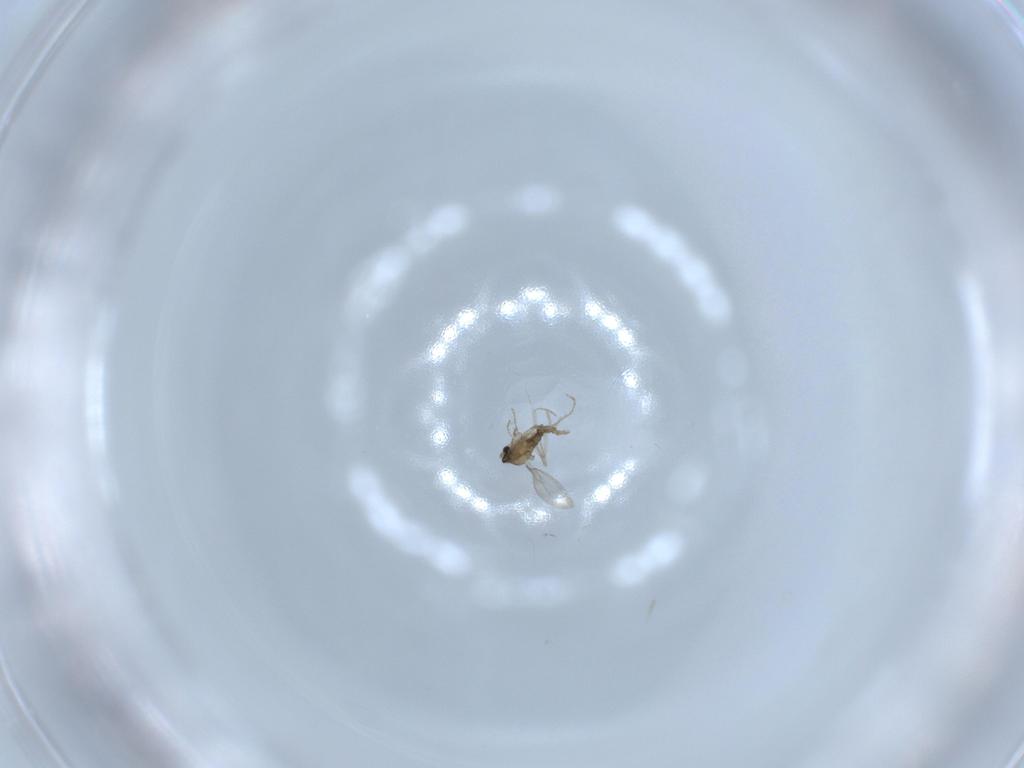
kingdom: Animalia
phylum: Arthropoda
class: Insecta
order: Diptera
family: Cecidomyiidae
